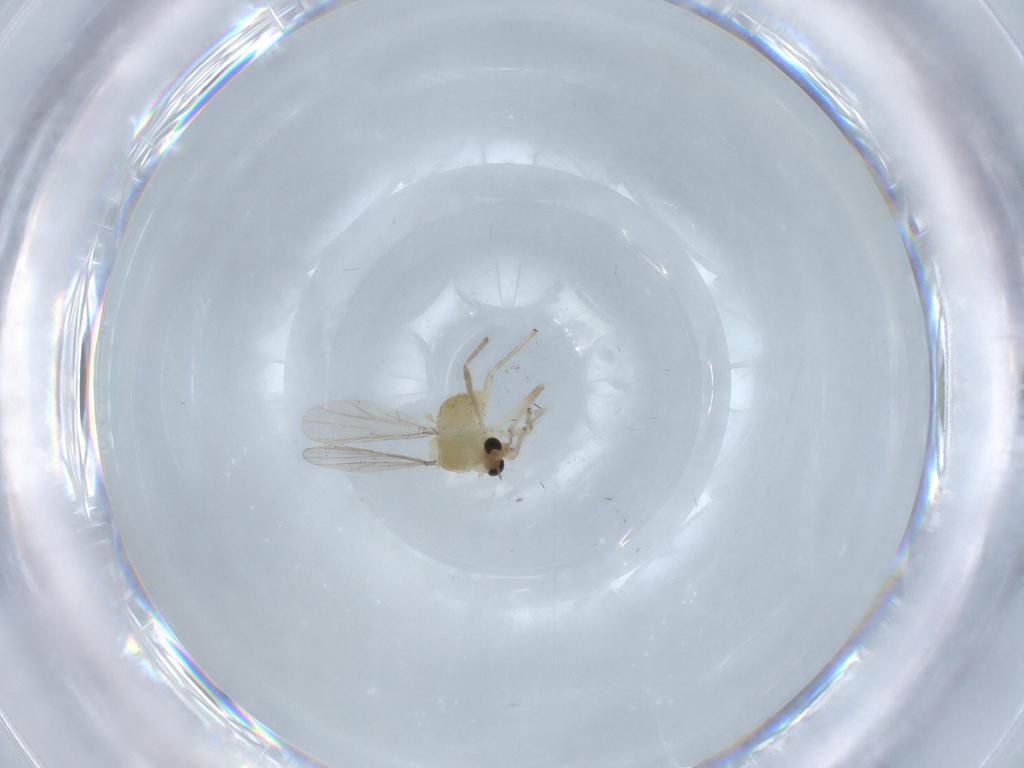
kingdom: Animalia
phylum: Arthropoda
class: Insecta
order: Diptera
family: Chironomidae
